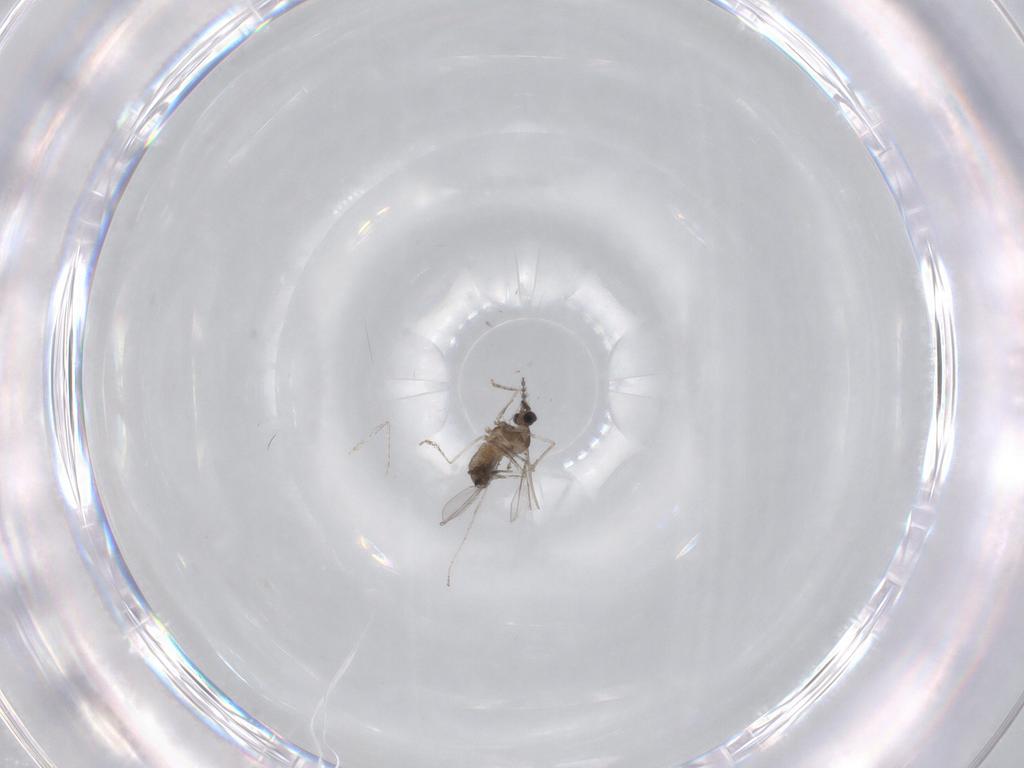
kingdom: Animalia
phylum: Arthropoda
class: Insecta
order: Diptera
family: Cecidomyiidae
